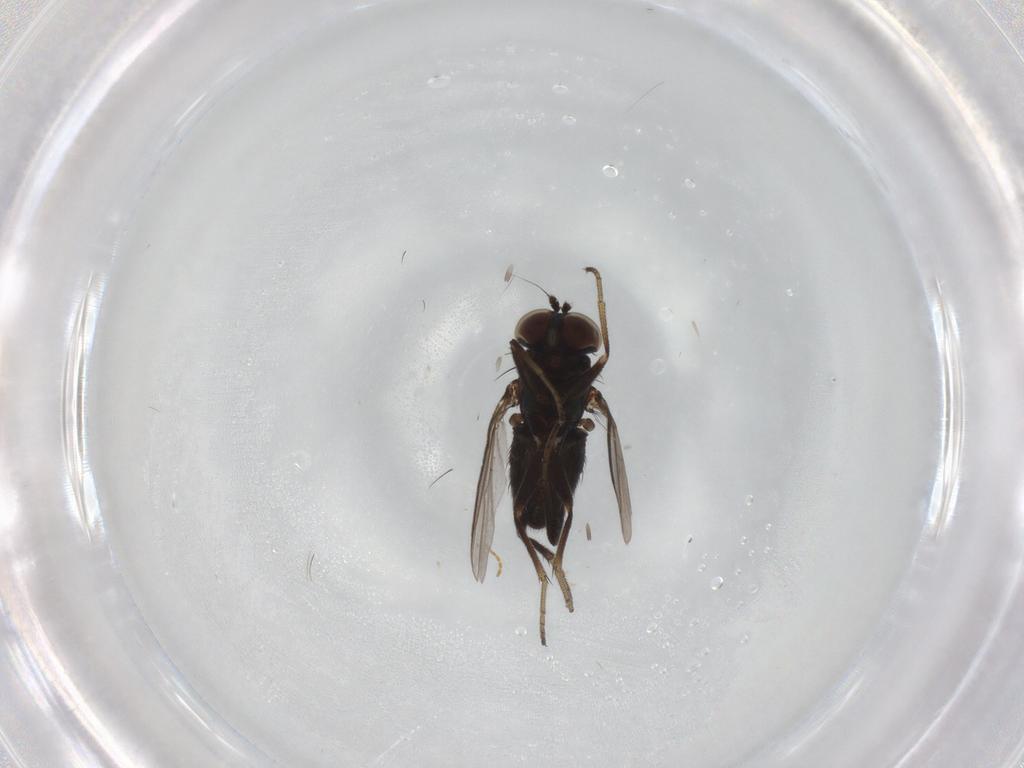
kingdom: Animalia
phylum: Arthropoda
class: Insecta
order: Diptera
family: Dolichopodidae
